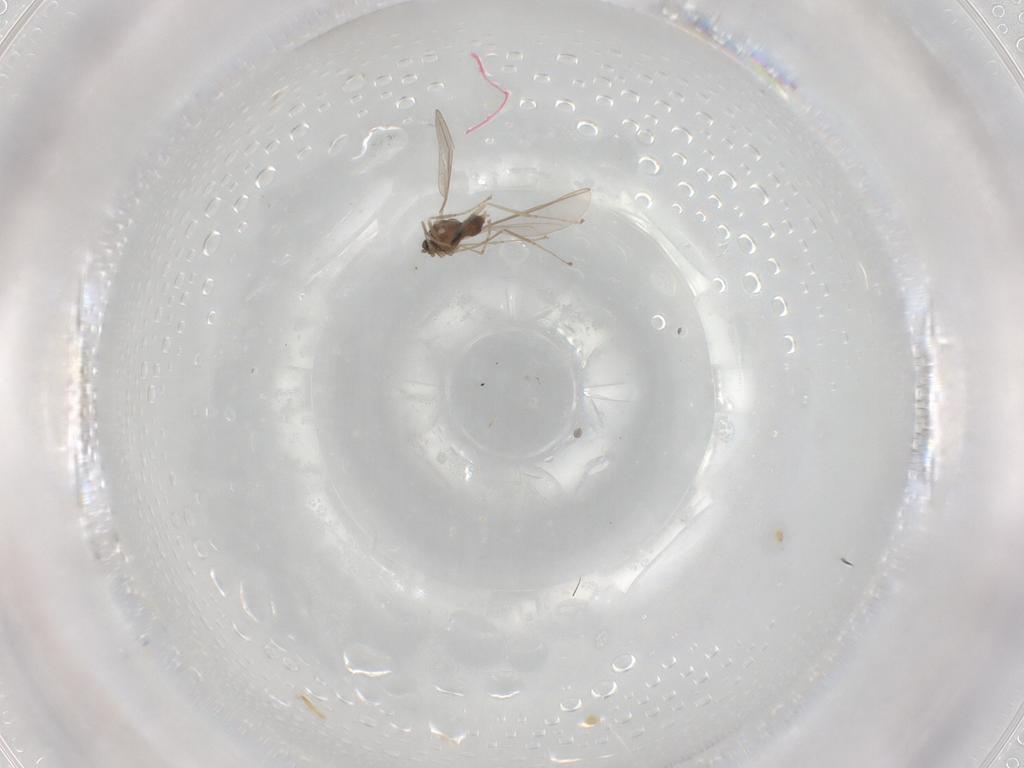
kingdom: Animalia
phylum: Arthropoda
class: Insecta
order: Diptera
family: Cecidomyiidae
